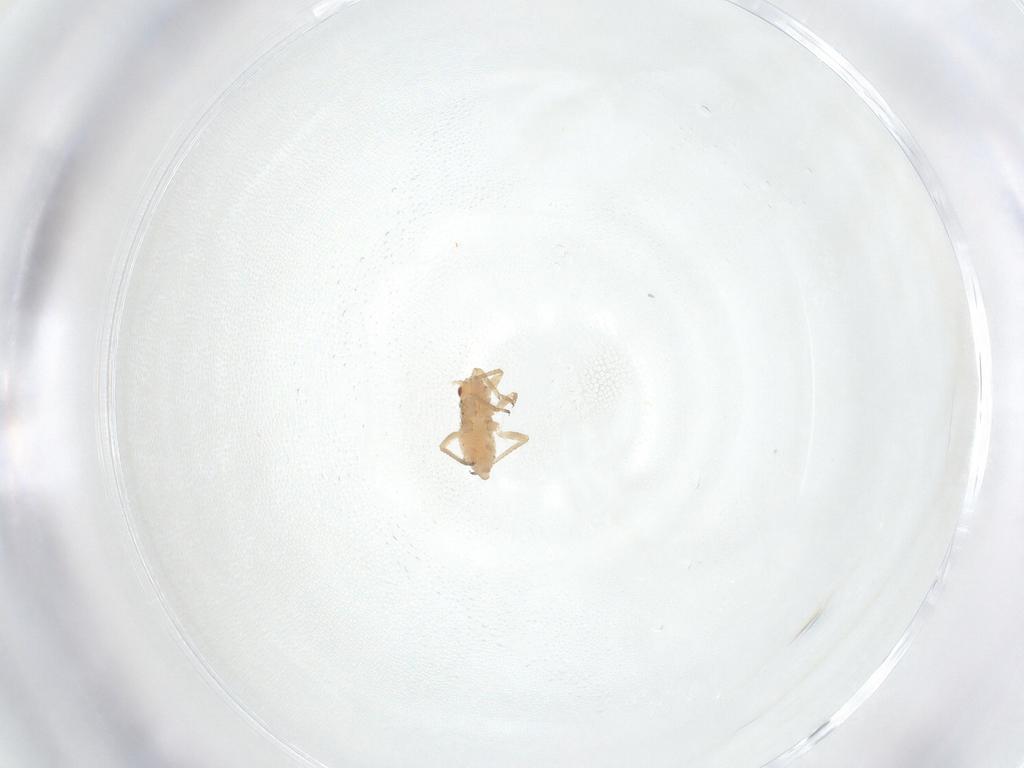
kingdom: Animalia
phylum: Arthropoda
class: Insecta
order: Hemiptera
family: Aphididae
